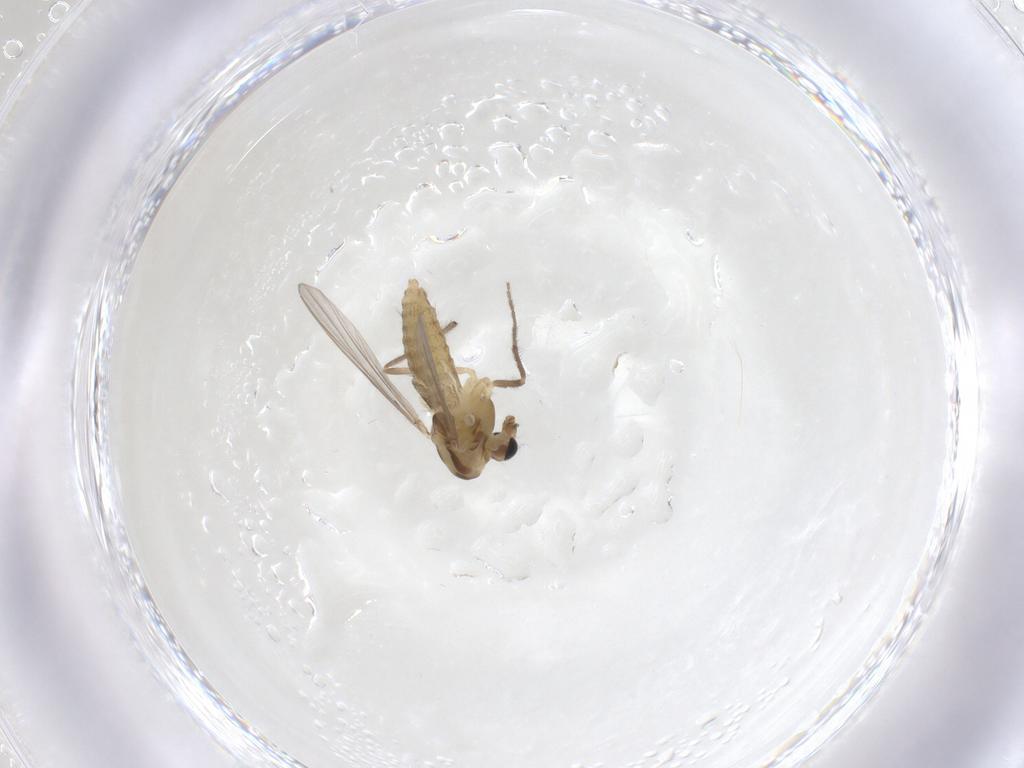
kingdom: Animalia
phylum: Arthropoda
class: Insecta
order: Diptera
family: Chironomidae
